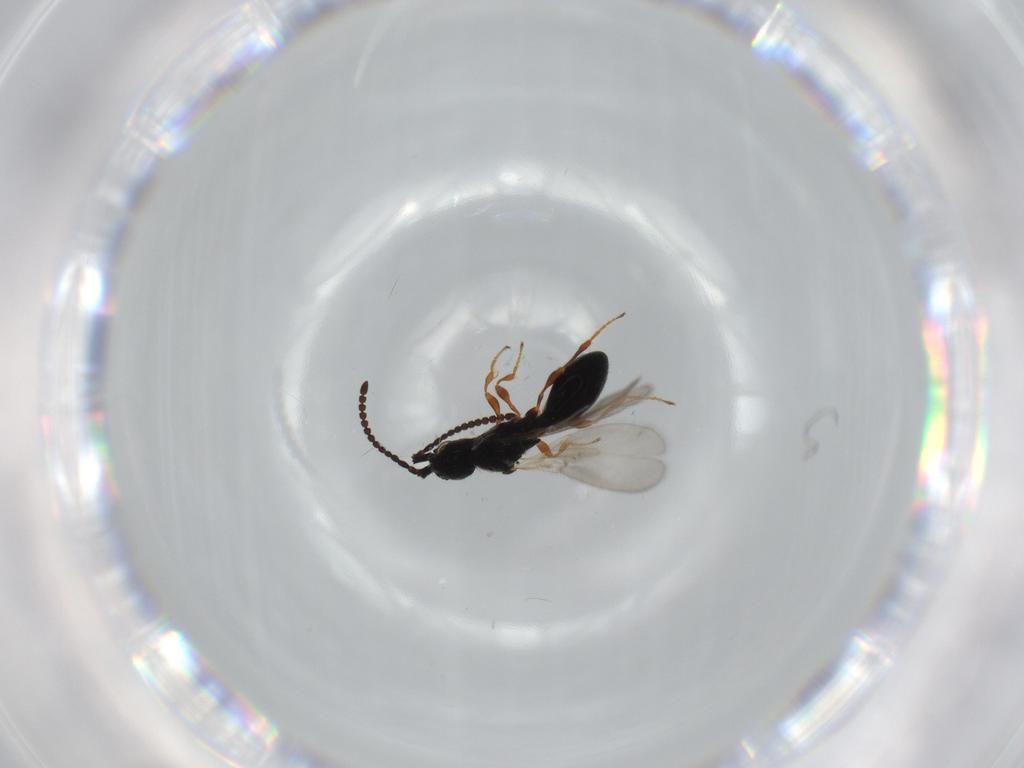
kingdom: Animalia
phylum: Arthropoda
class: Insecta
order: Hymenoptera
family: Diapriidae
